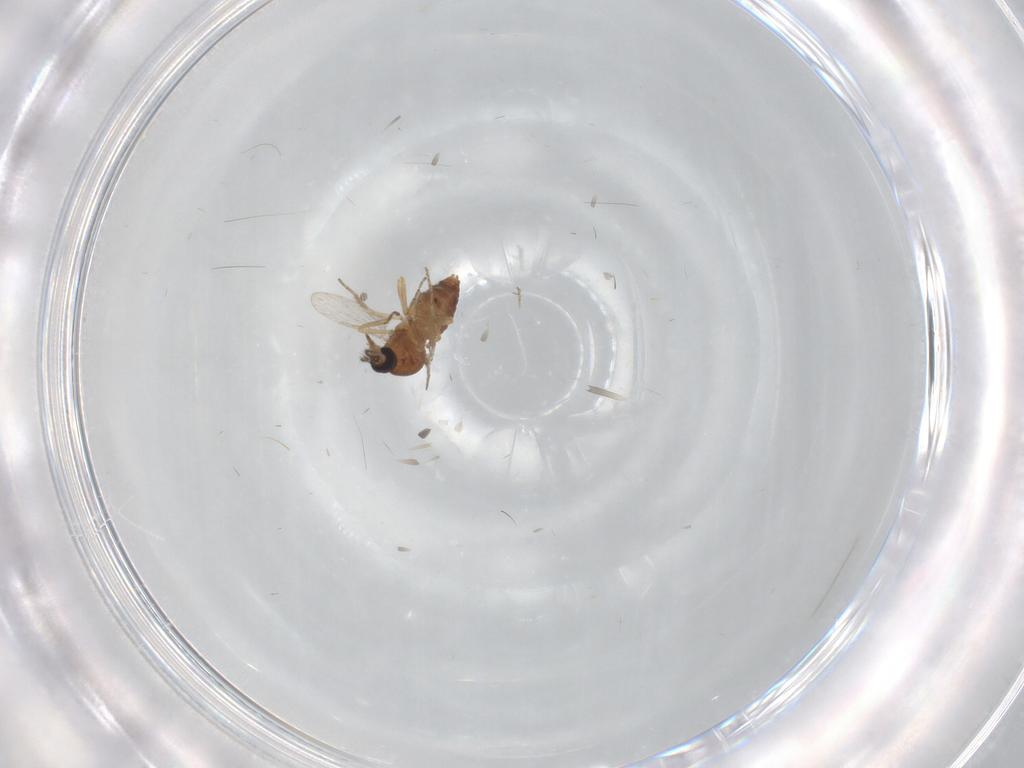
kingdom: Animalia
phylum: Arthropoda
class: Insecta
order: Diptera
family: Ceratopogonidae
